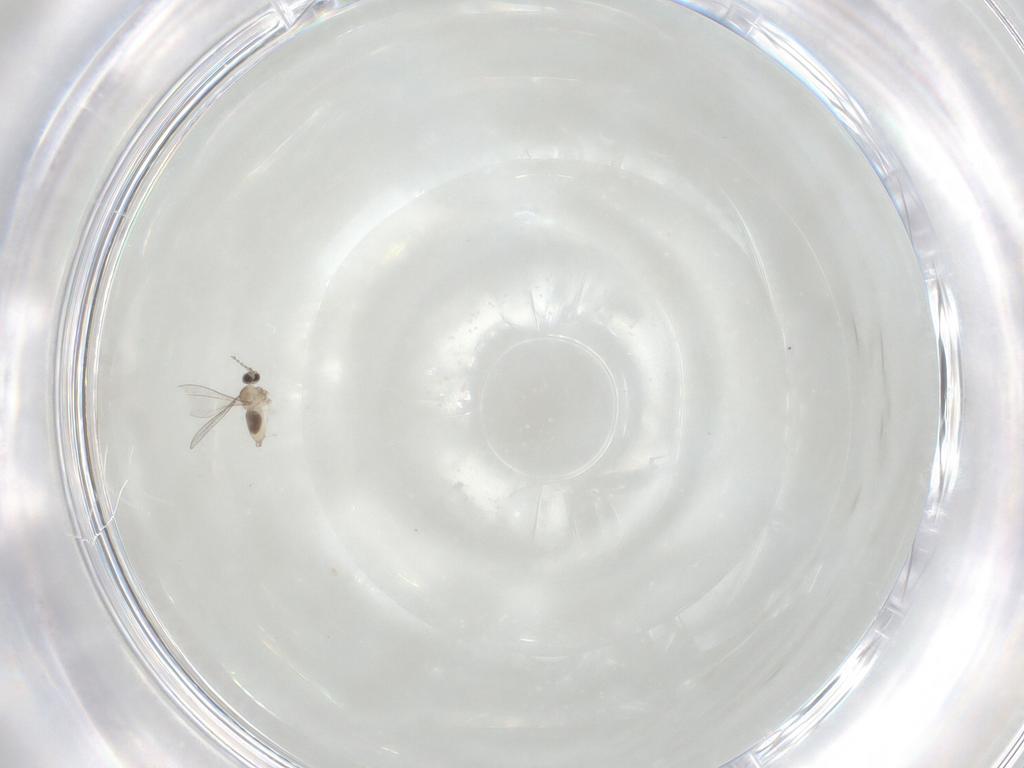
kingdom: Animalia
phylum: Arthropoda
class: Insecta
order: Diptera
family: Cecidomyiidae
